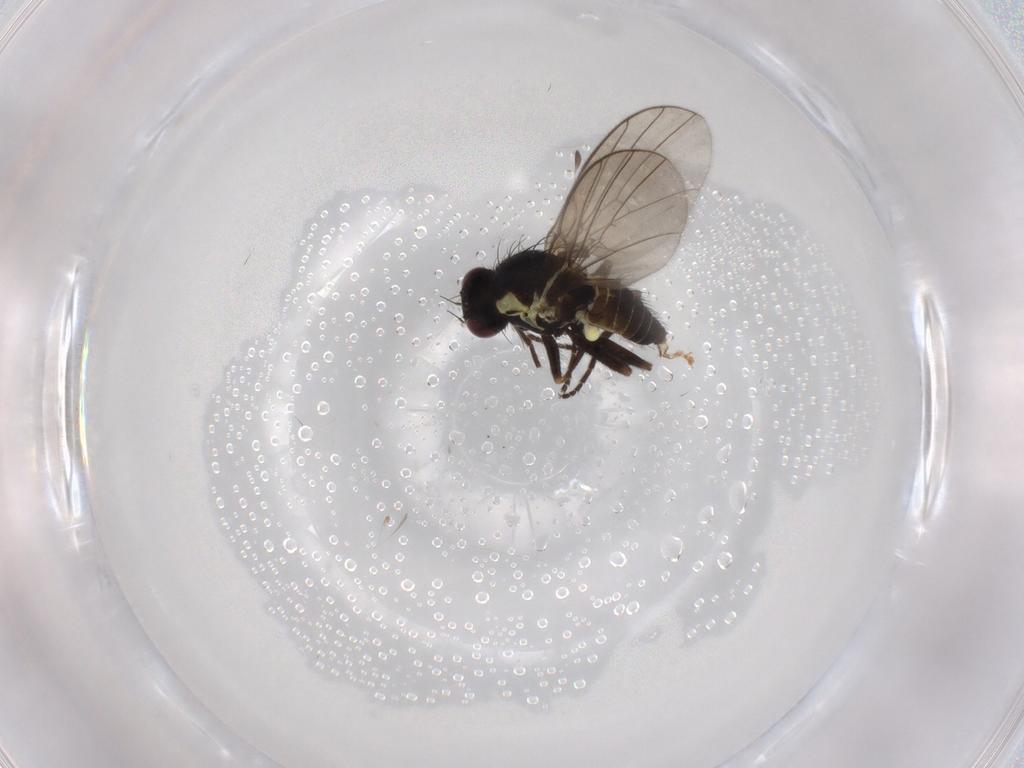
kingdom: Animalia
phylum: Arthropoda
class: Insecta
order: Diptera
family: Agromyzidae
